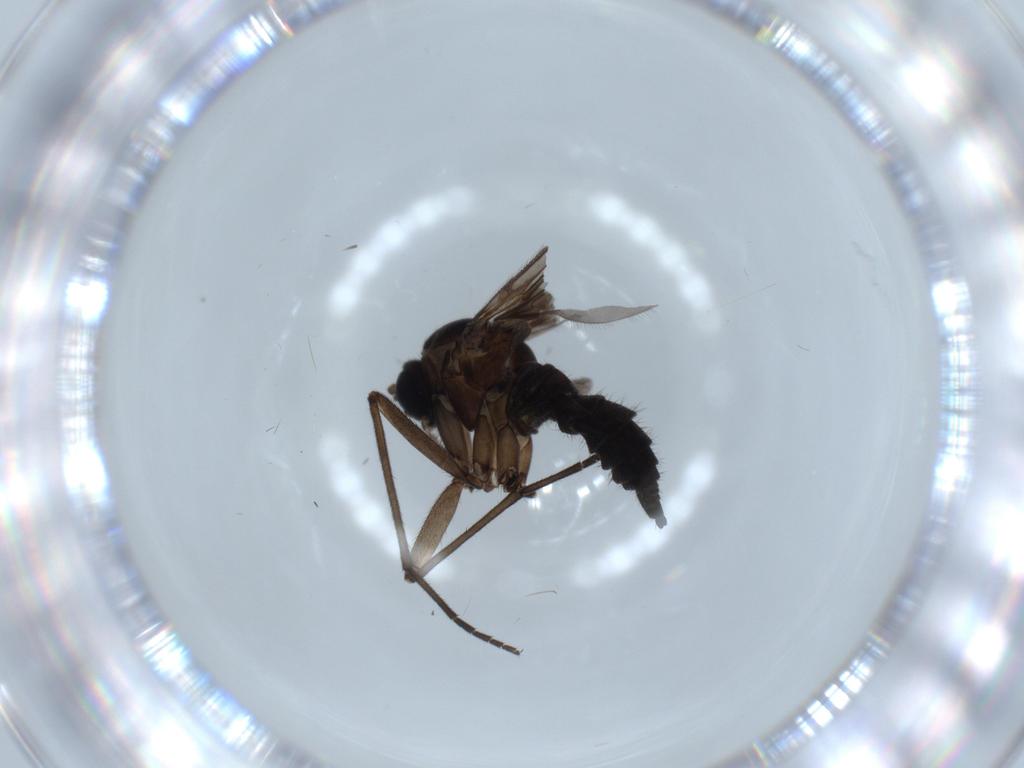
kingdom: Animalia
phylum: Arthropoda
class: Insecta
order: Diptera
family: Sciaridae
